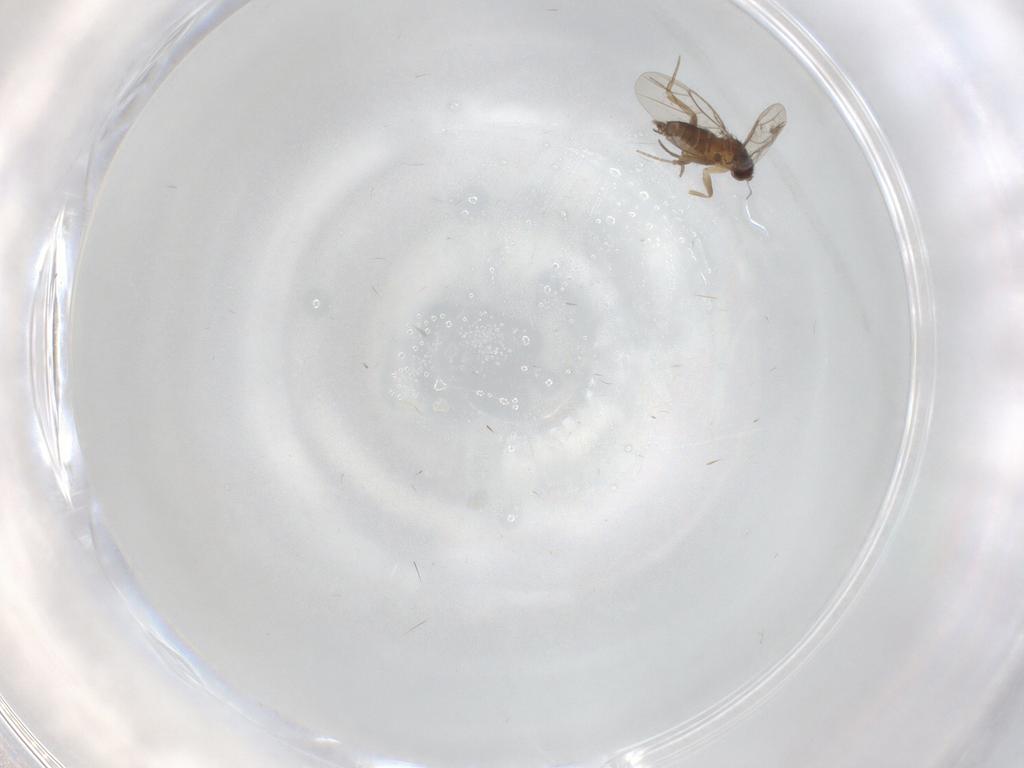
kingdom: Animalia
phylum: Arthropoda
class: Insecta
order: Diptera
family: Phoridae
